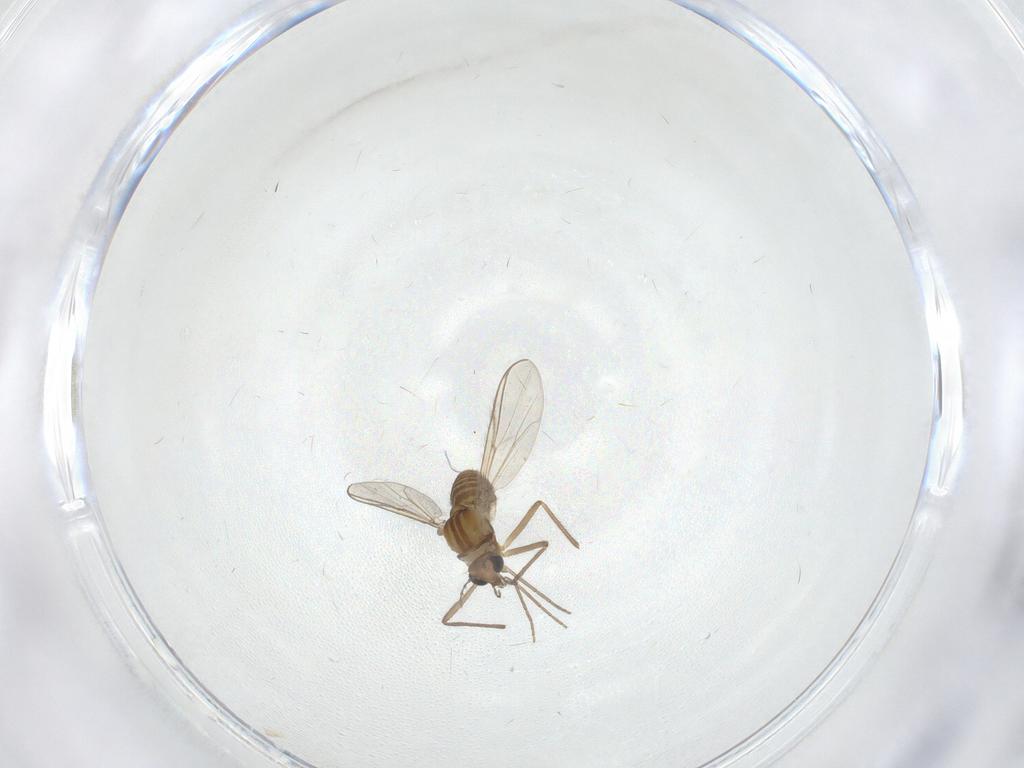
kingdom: Animalia
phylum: Arthropoda
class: Insecta
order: Diptera
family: Chironomidae
